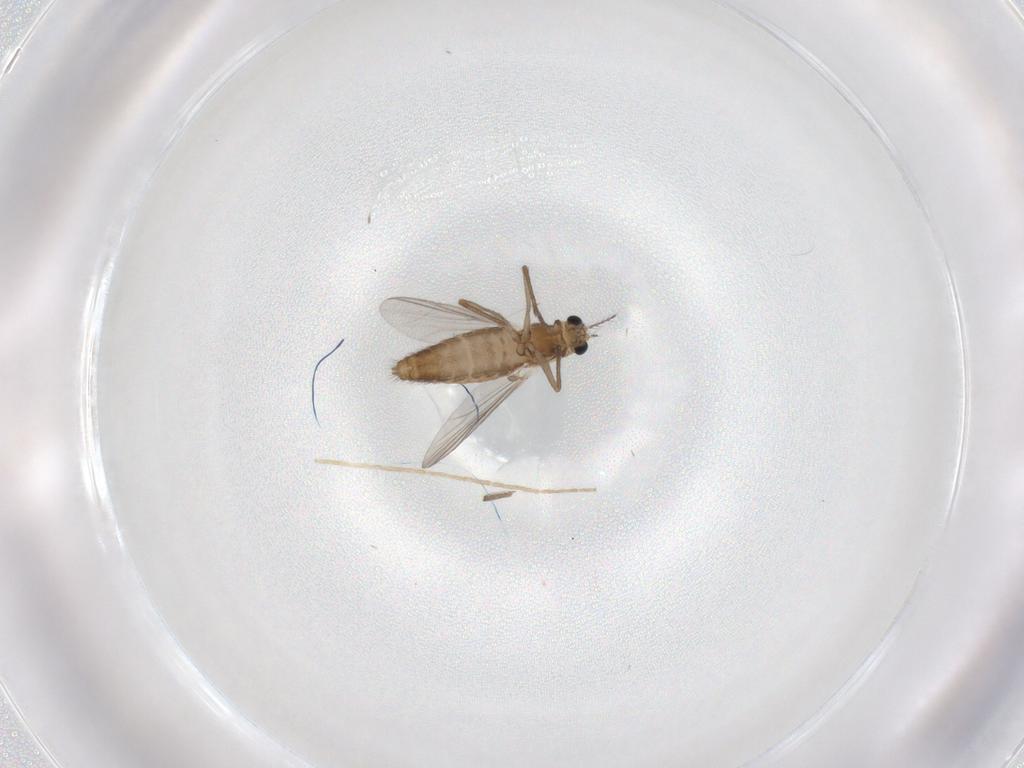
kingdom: Animalia
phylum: Arthropoda
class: Insecta
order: Diptera
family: Chironomidae
